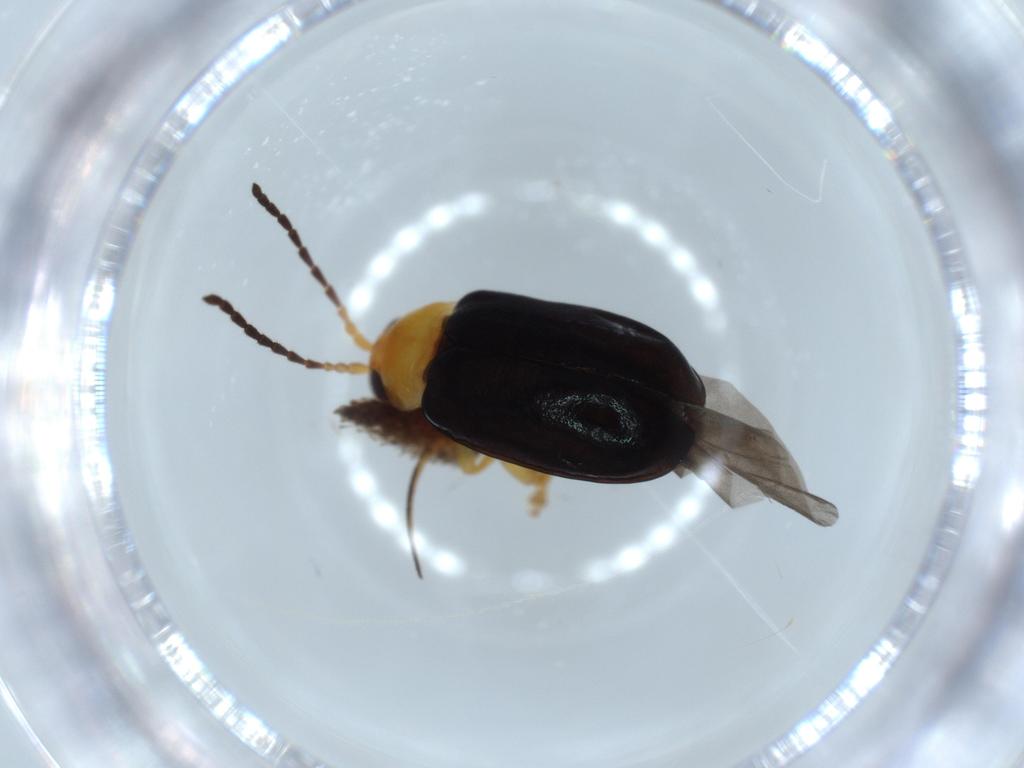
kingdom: Animalia
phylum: Arthropoda
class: Insecta
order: Coleoptera
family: Chrysomelidae
